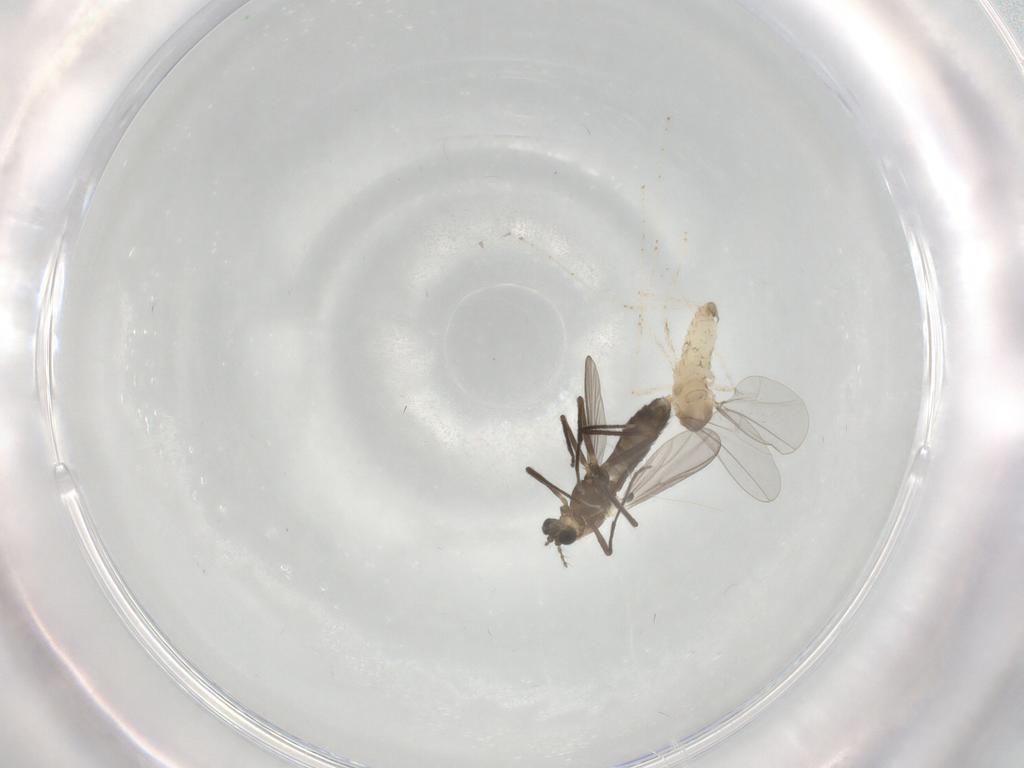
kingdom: Animalia
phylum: Arthropoda
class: Insecta
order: Diptera
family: Chironomidae
